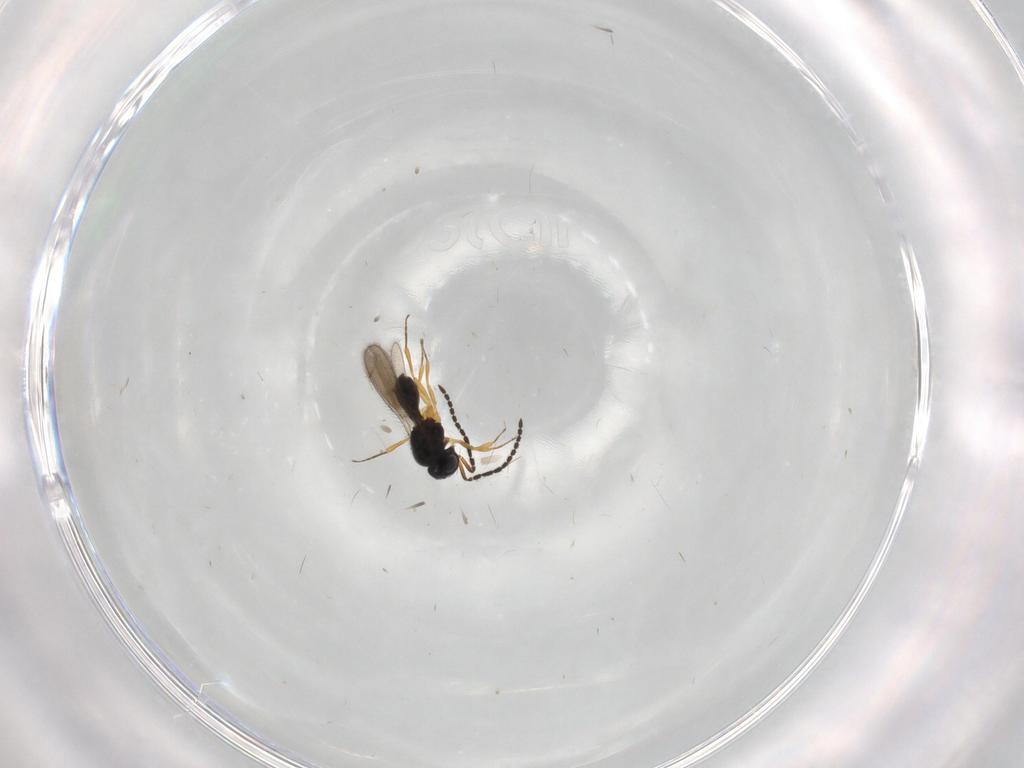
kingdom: Animalia
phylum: Arthropoda
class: Insecta
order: Hymenoptera
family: Scelionidae
